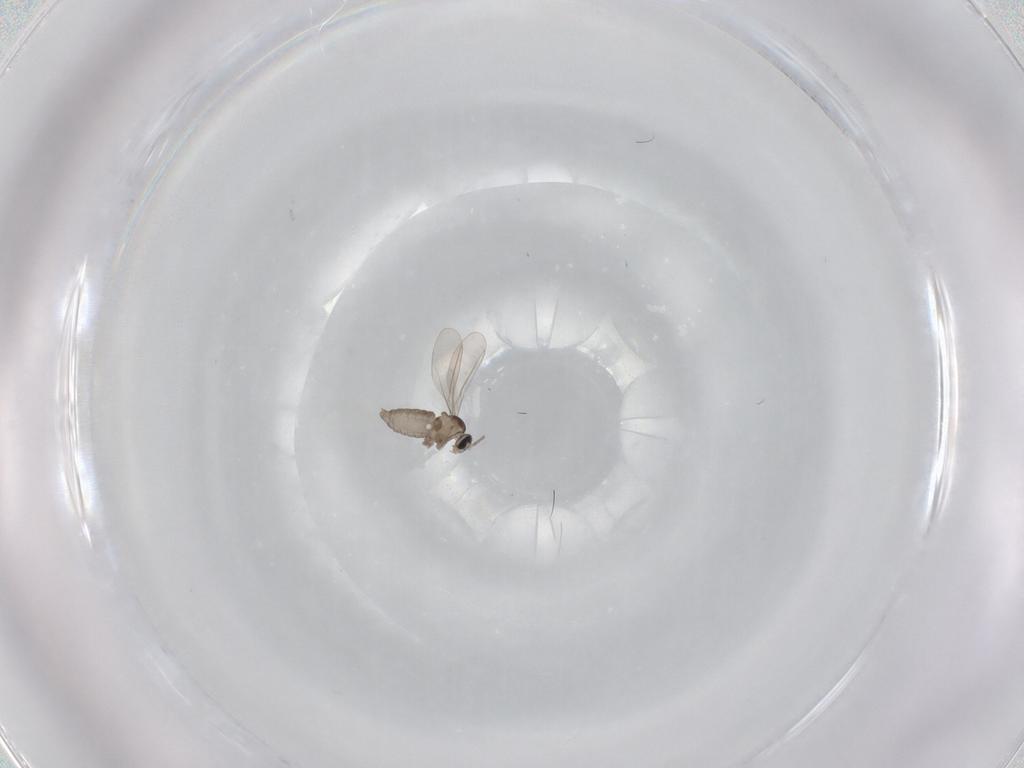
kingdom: Animalia
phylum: Arthropoda
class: Insecta
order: Diptera
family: Cecidomyiidae
